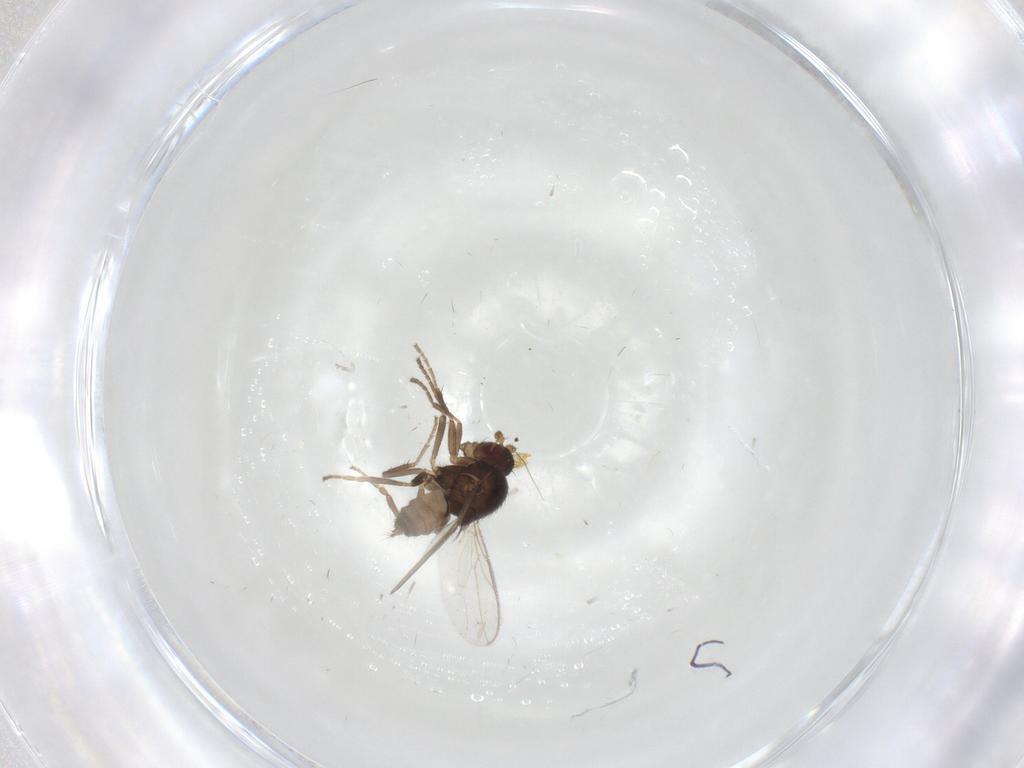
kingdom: Animalia
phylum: Arthropoda
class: Insecta
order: Diptera
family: Sphaeroceridae
